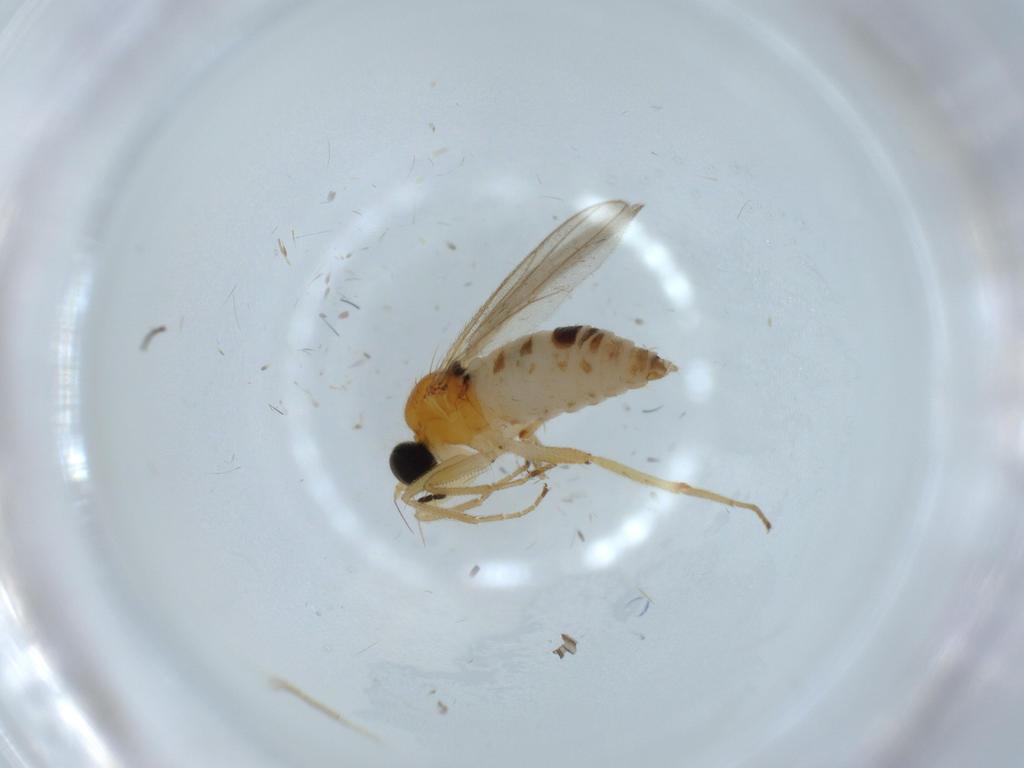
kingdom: Animalia
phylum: Arthropoda
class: Insecta
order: Diptera
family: Hybotidae
